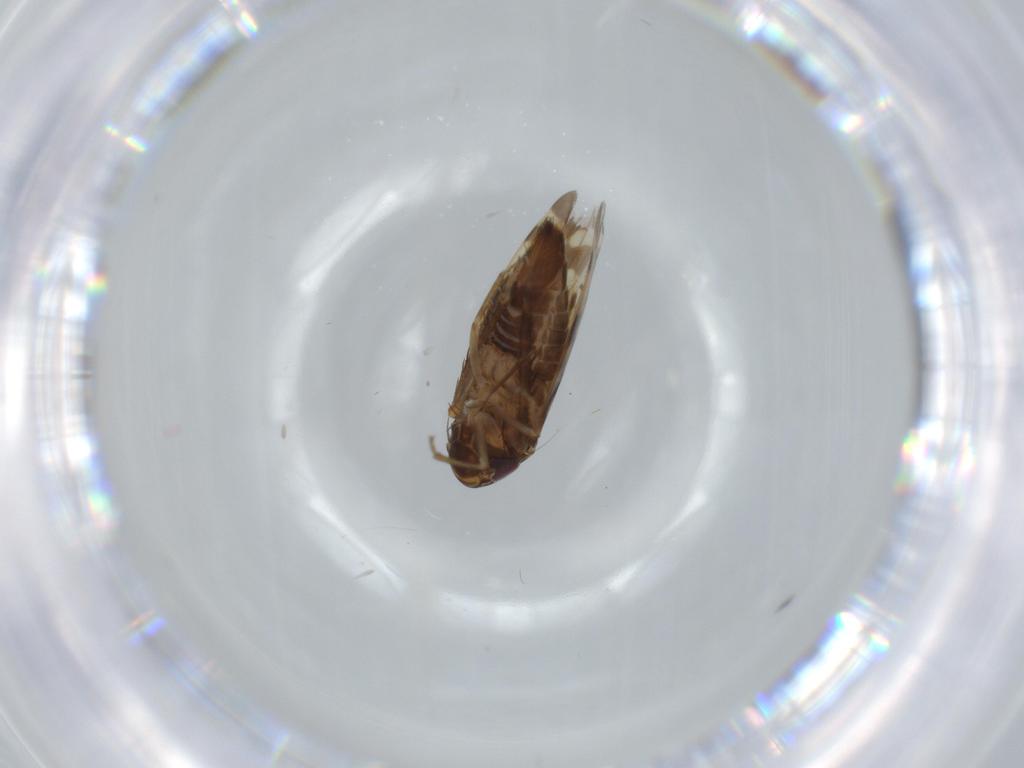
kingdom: Animalia
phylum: Arthropoda
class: Insecta
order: Hemiptera
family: Cicadellidae
